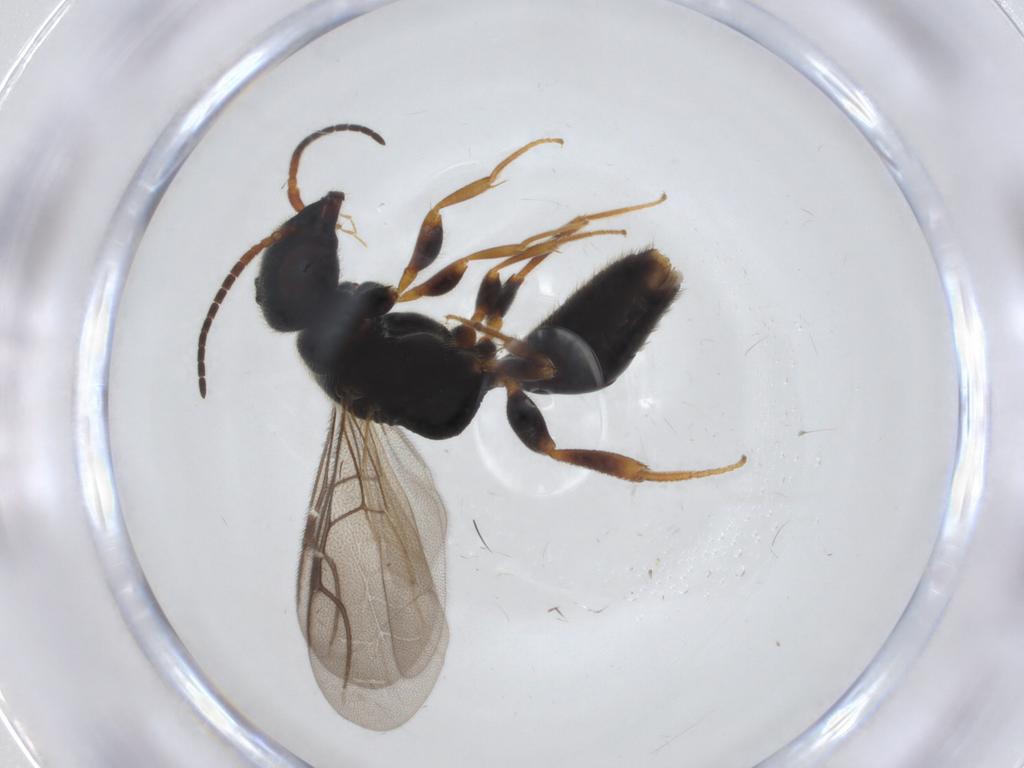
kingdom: Animalia
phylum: Arthropoda
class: Insecta
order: Hymenoptera
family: Bethylidae
